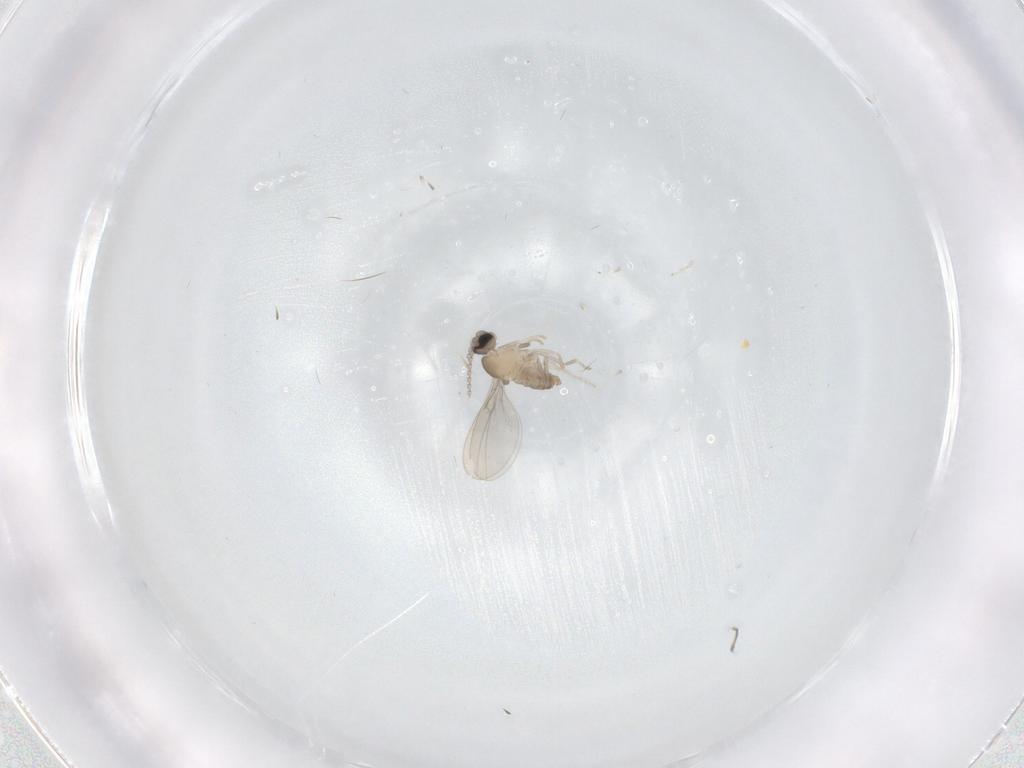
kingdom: Animalia
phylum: Arthropoda
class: Insecta
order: Diptera
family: Cecidomyiidae
